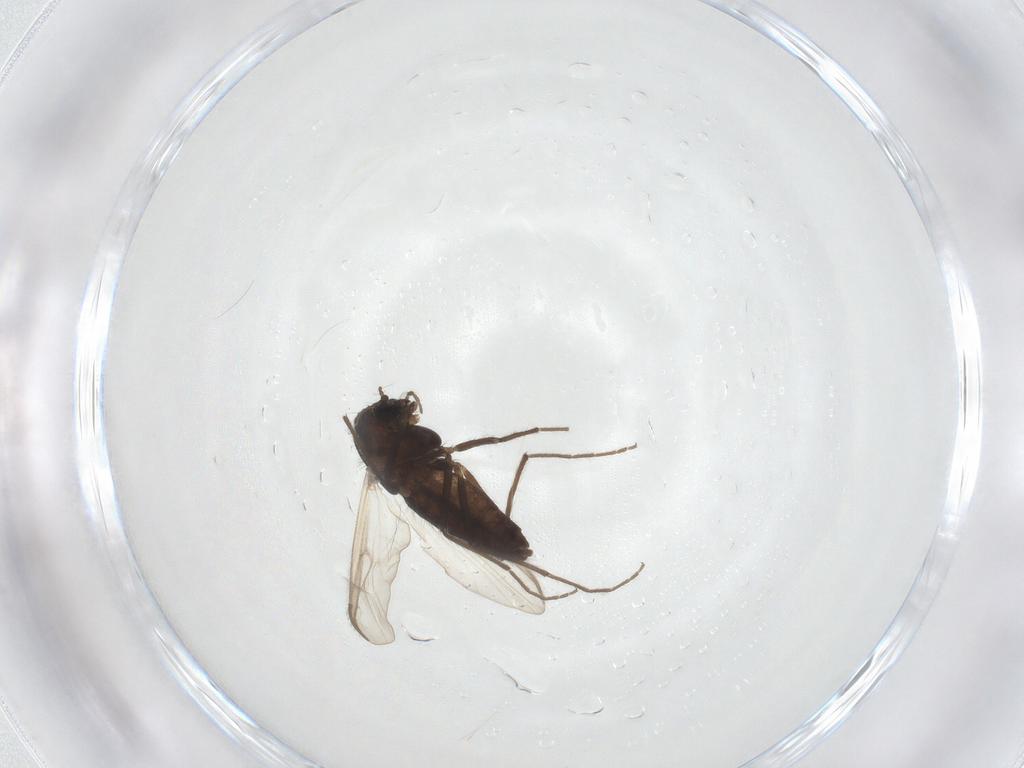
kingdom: Animalia
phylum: Arthropoda
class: Insecta
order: Diptera
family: Chironomidae
